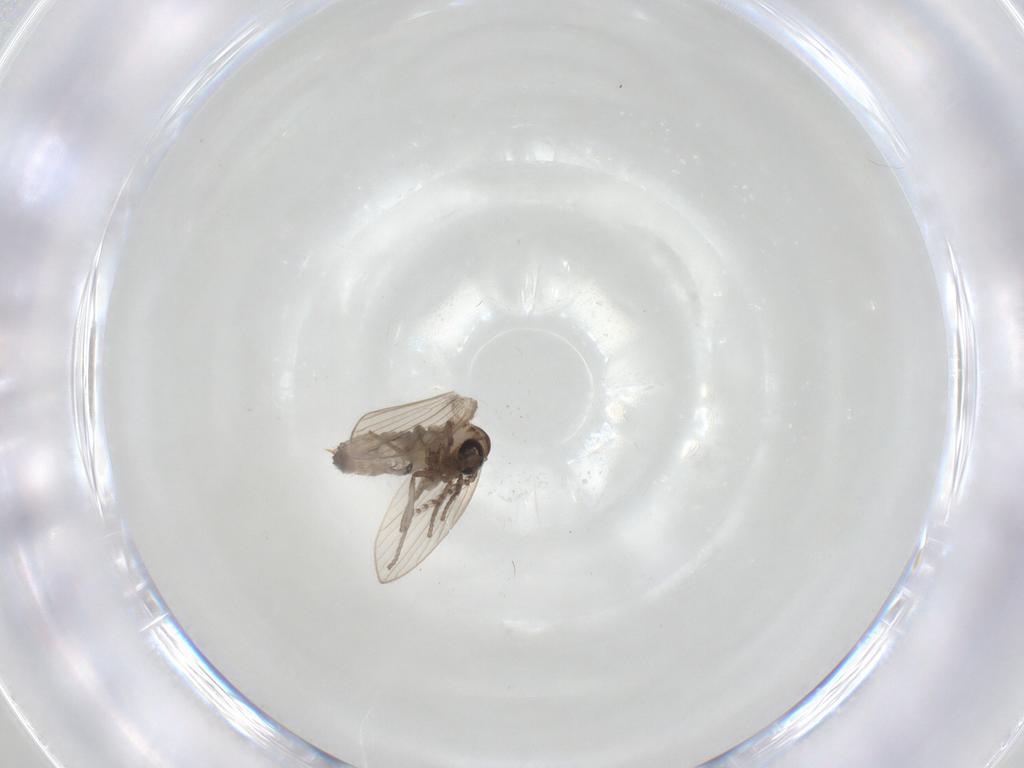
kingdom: Animalia
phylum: Arthropoda
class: Insecta
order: Diptera
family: Psychodidae
